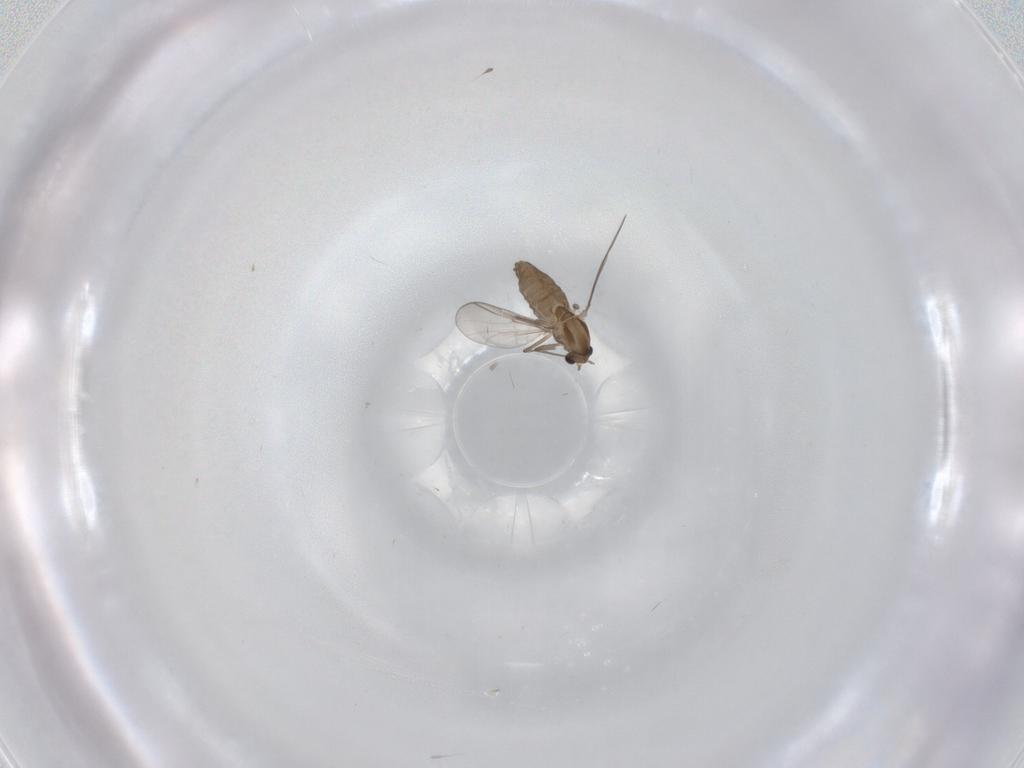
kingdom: Animalia
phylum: Arthropoda
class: Insecta
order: Diptera
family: Chironomidae
